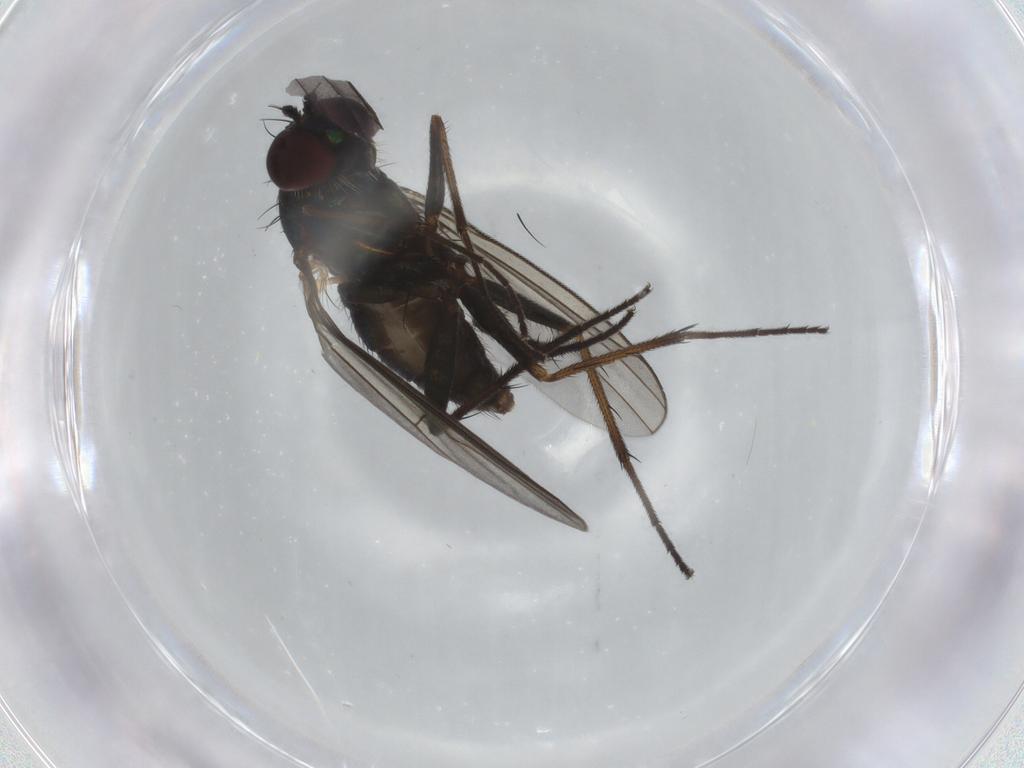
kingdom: Animalia
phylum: Arthropoda
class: Insecta
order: Diptera
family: Dolichopodidae
